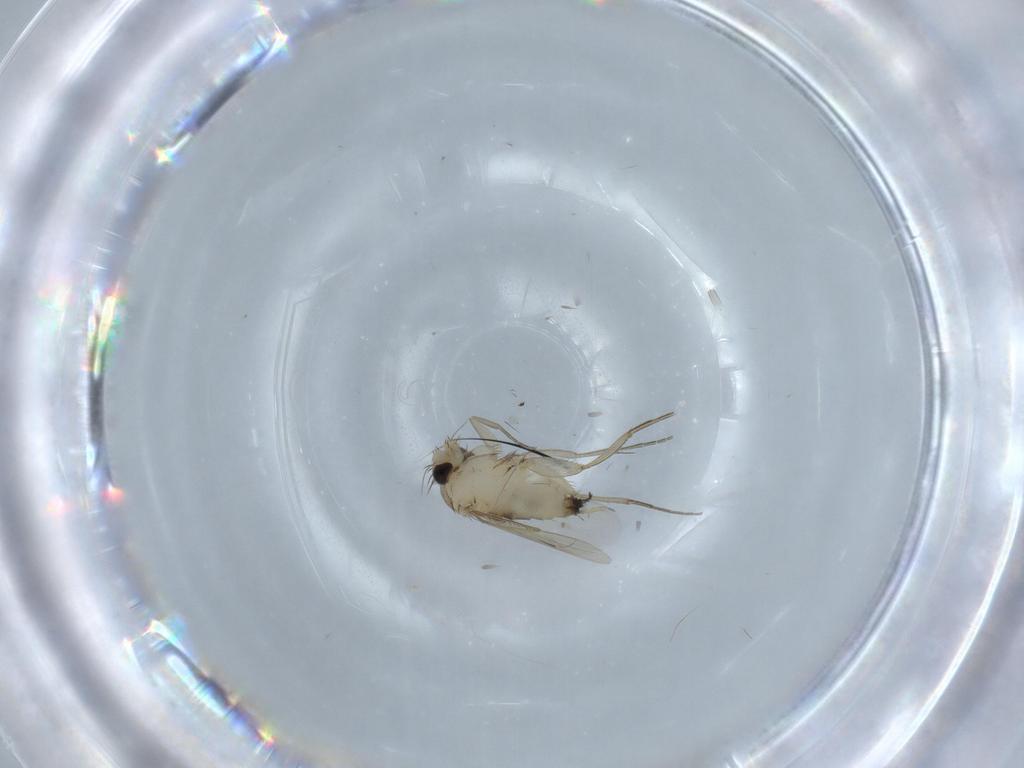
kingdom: Animalia
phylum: Arthropoda
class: Insecta
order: Diptera
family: Phoridae
